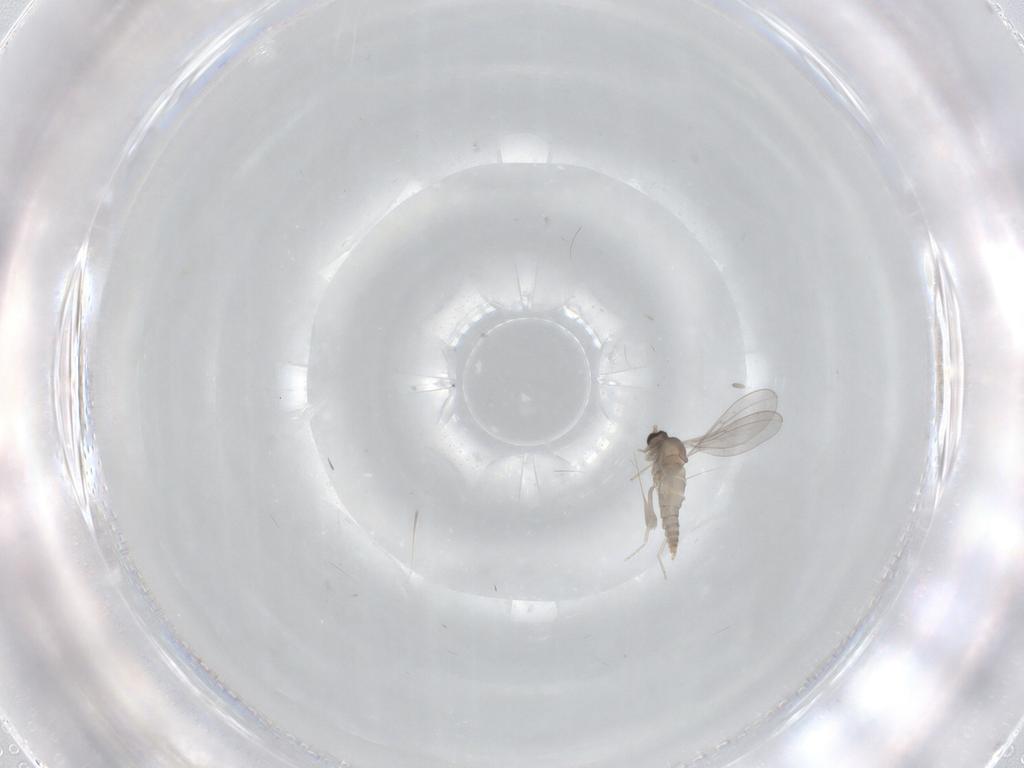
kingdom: Animalia
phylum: Arthropoda
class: Insecta
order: Diptera
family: Cecidomyiidae
